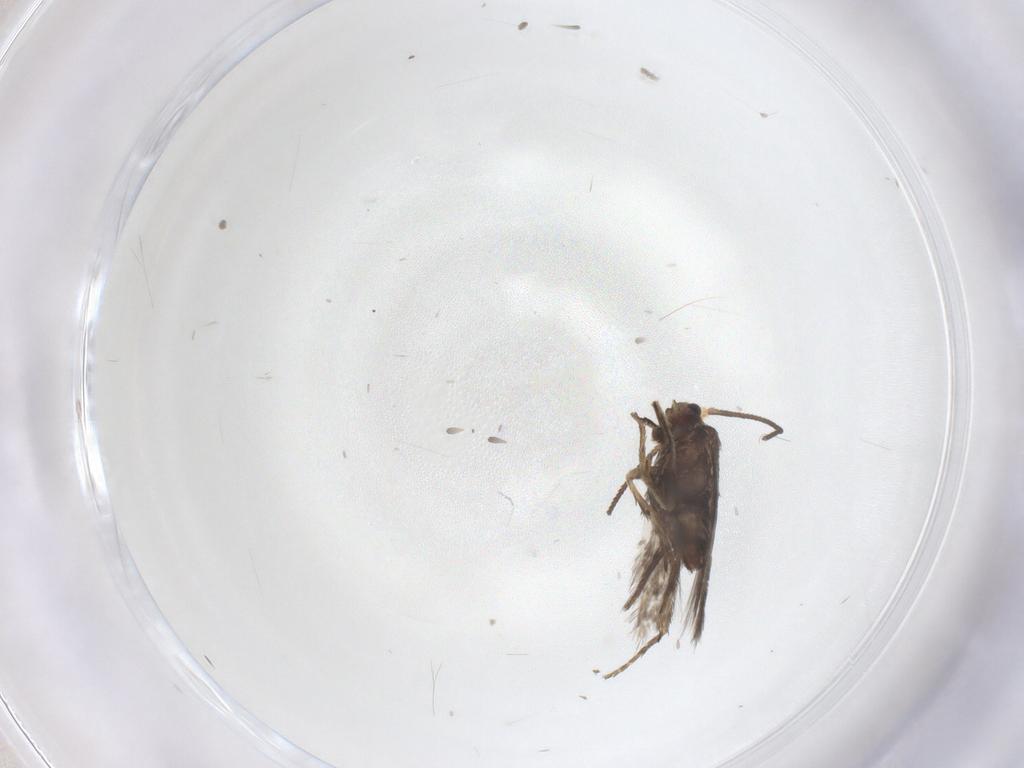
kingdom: Animalia
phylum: Arthropoda
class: Insecta
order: Lepidoptera
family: Nepticulidae
